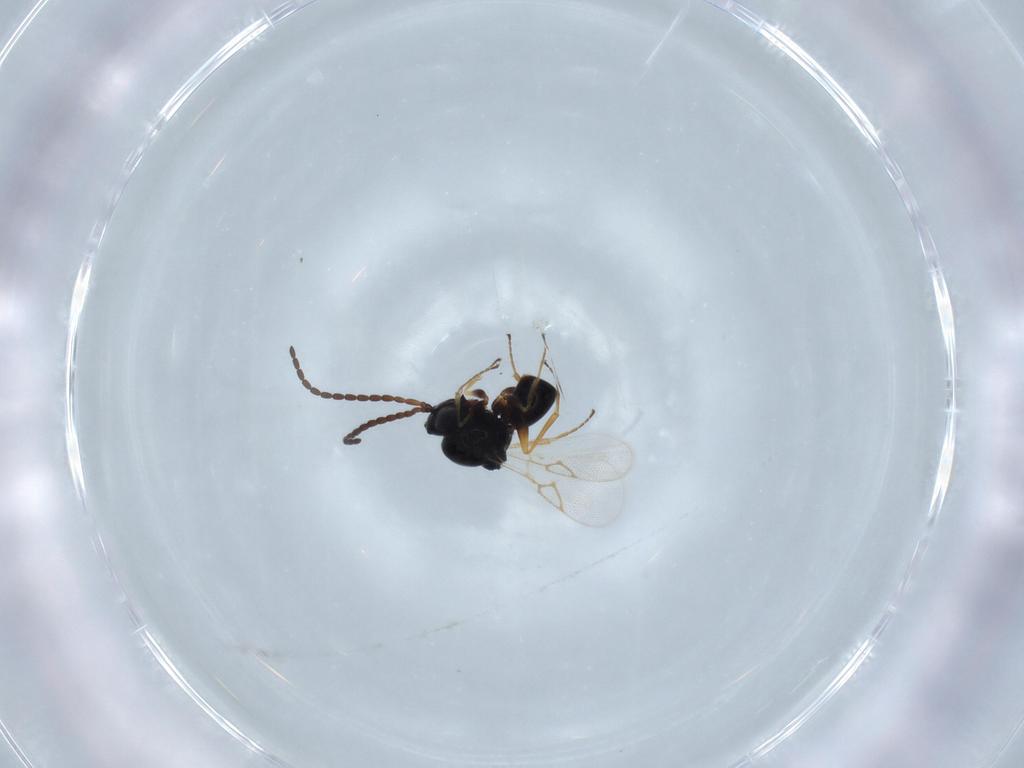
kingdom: Animalia
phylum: Arthropoda
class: Insecta
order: Hymenoptera
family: Figitidae
